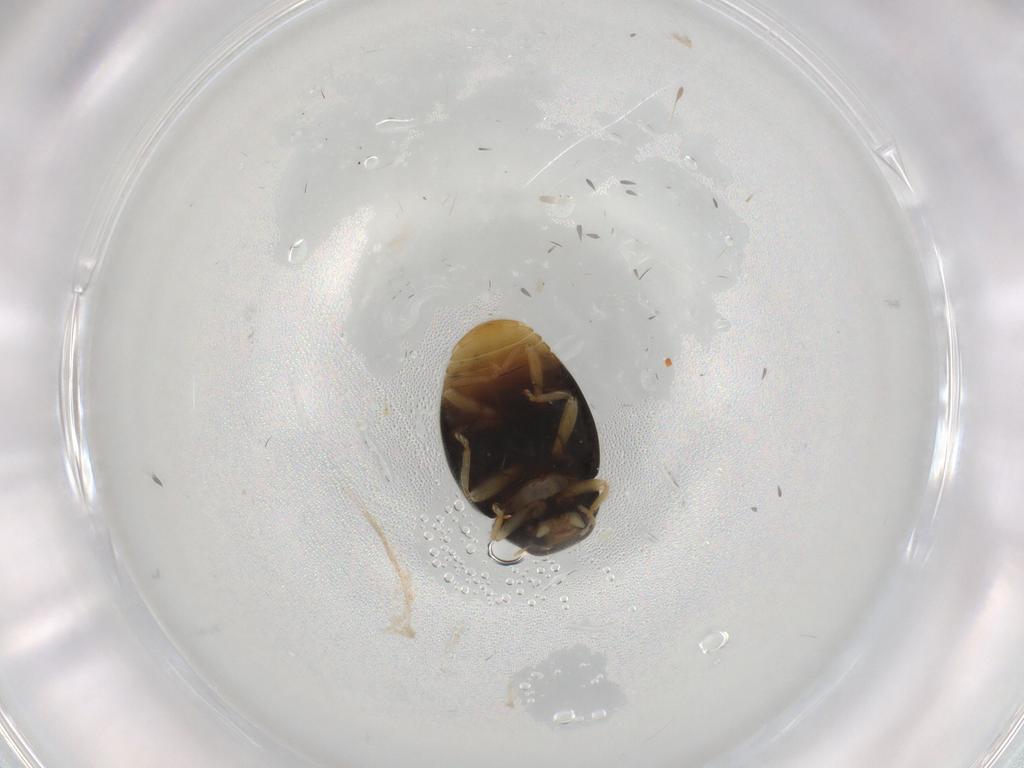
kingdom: Animalia
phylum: Arthropoda
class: Insecta
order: Coleoptera
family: Coccinellidae
